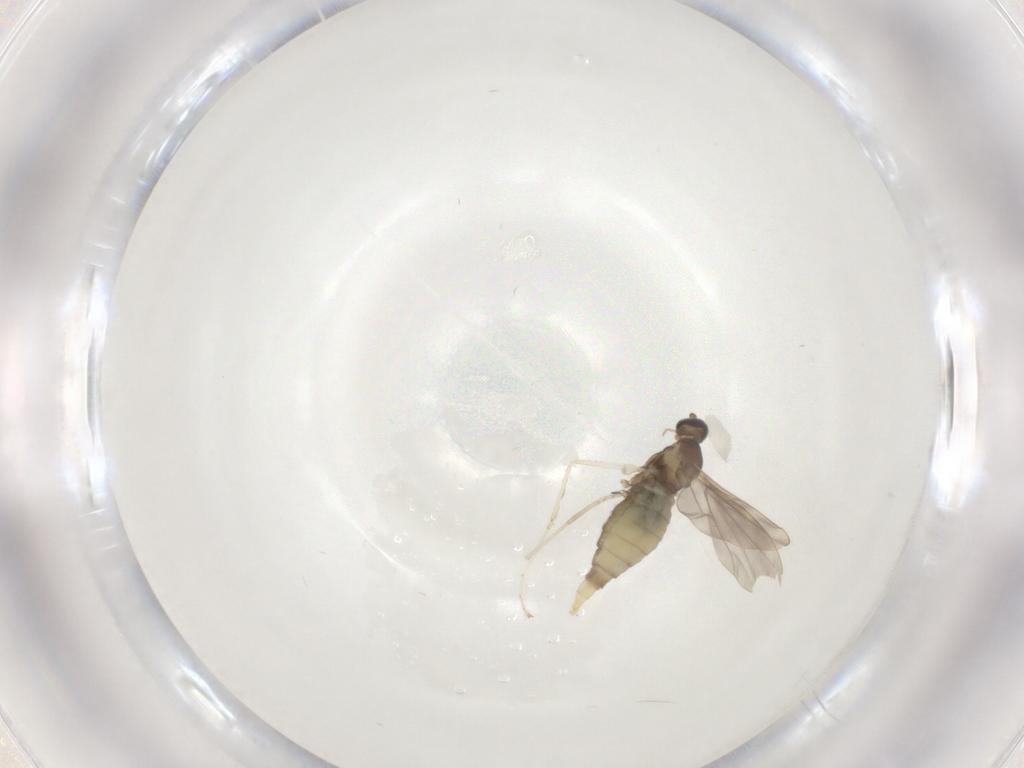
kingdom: Animalia
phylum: Arthropoda
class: Insecta
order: Diptera
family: Cecidomyiidae
